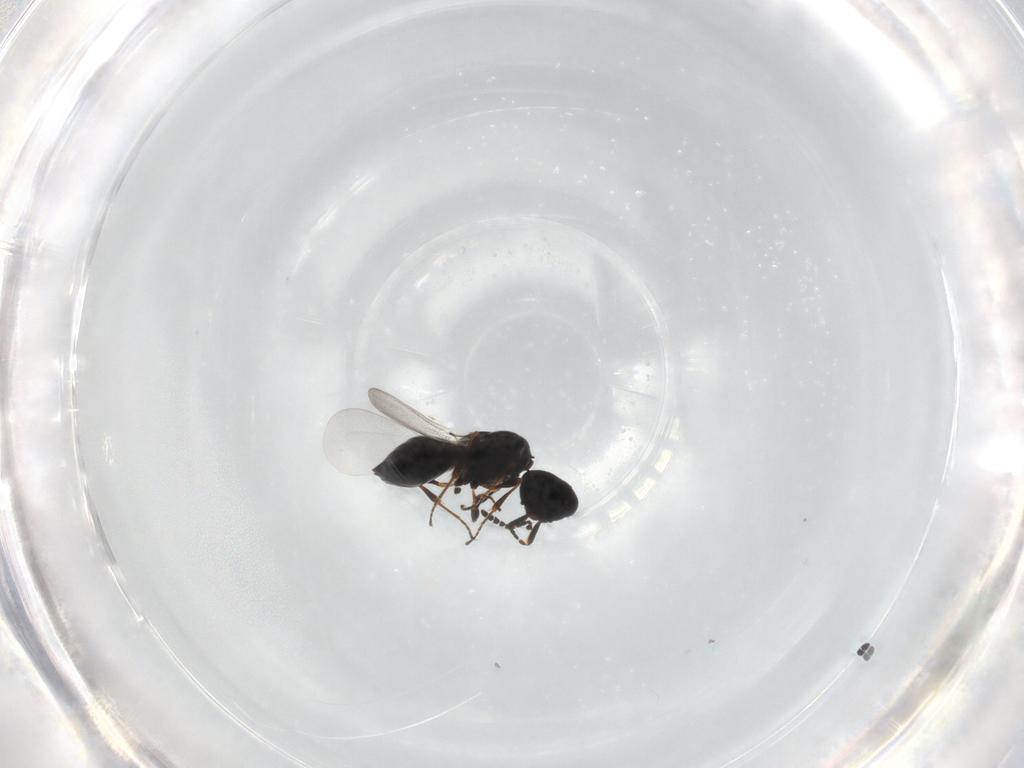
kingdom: Animalia
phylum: Arthropoda
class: Insecta
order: Hymenoptera
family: Platygastridae
